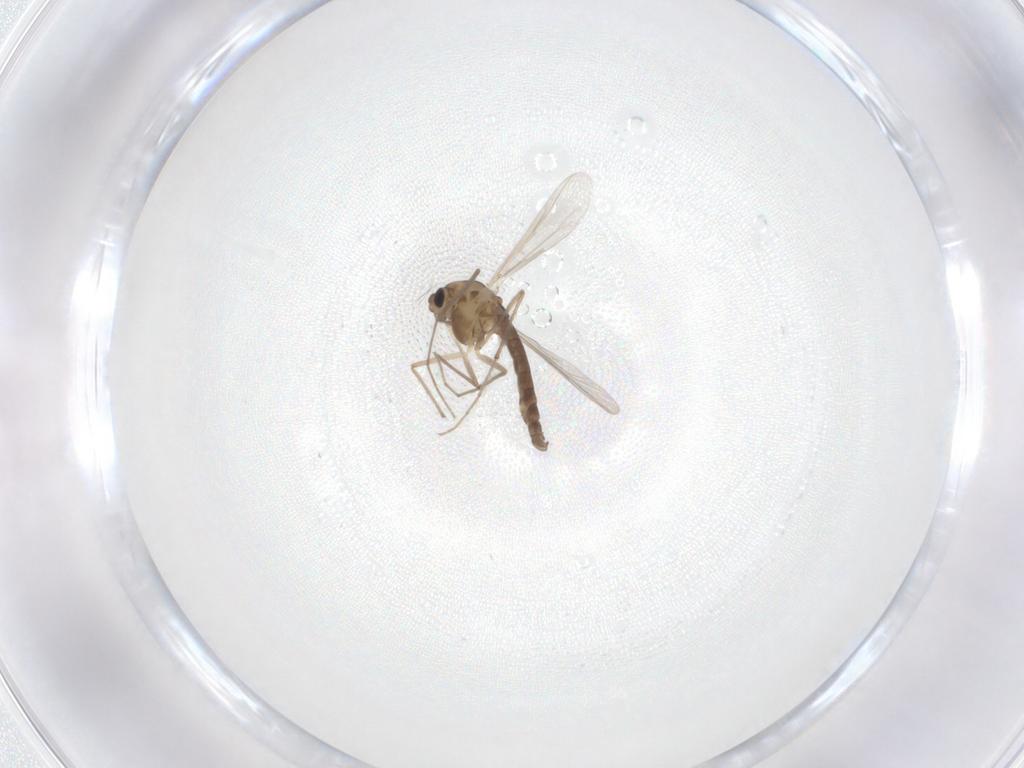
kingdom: Animalia
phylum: Arthropoda
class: Insecta
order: Diptera
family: Chironomidae
